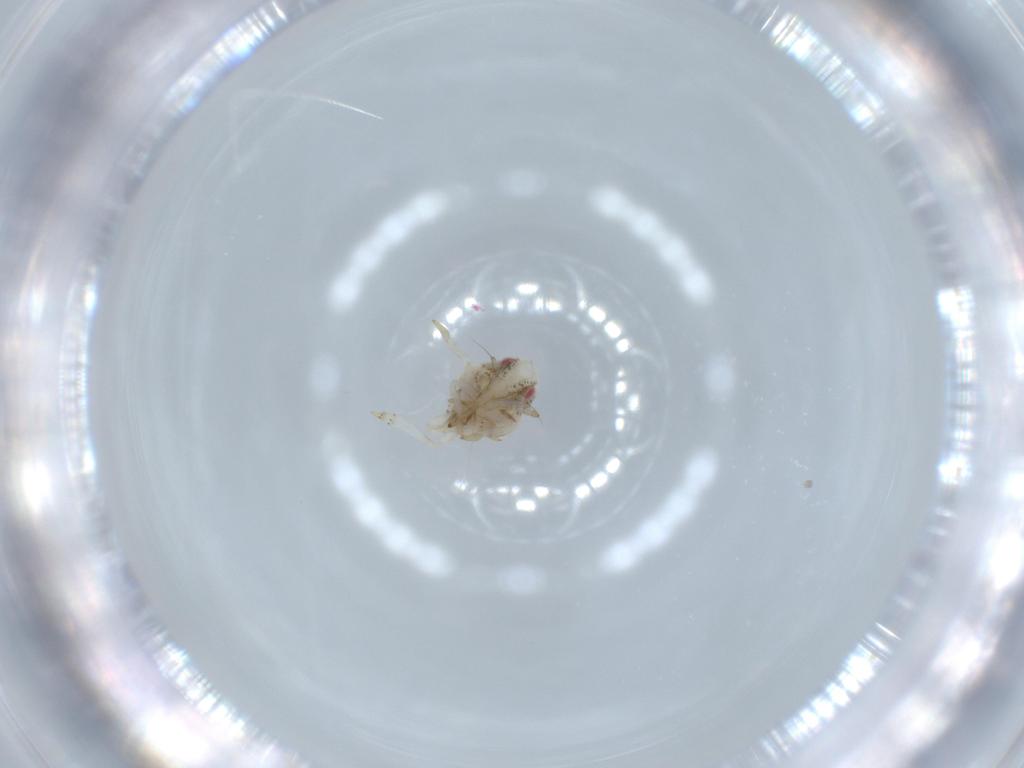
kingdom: Animalia
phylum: Arthropoda
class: Insecta
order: Hemiptera
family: Acanaloniidae
